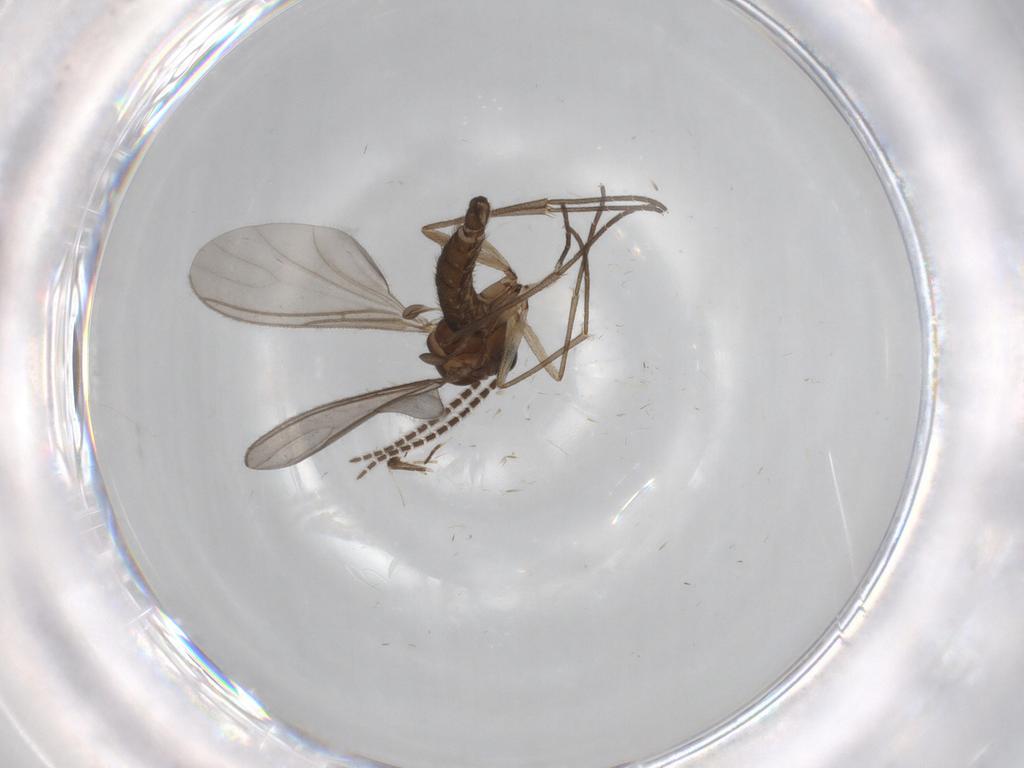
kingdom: Animalia
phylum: Arthropoda
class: Insecta
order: Diptera
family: Sciaridae
